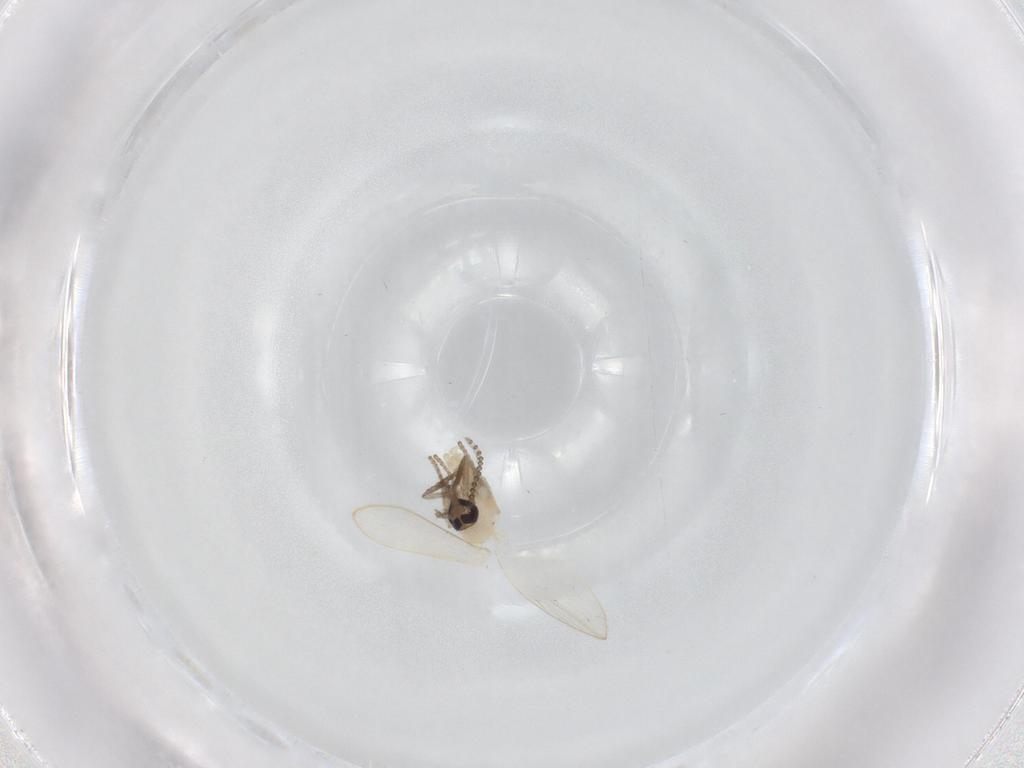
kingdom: Animalia
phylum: Arthropoda
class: Insecta
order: Diptera
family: Psychodidae
